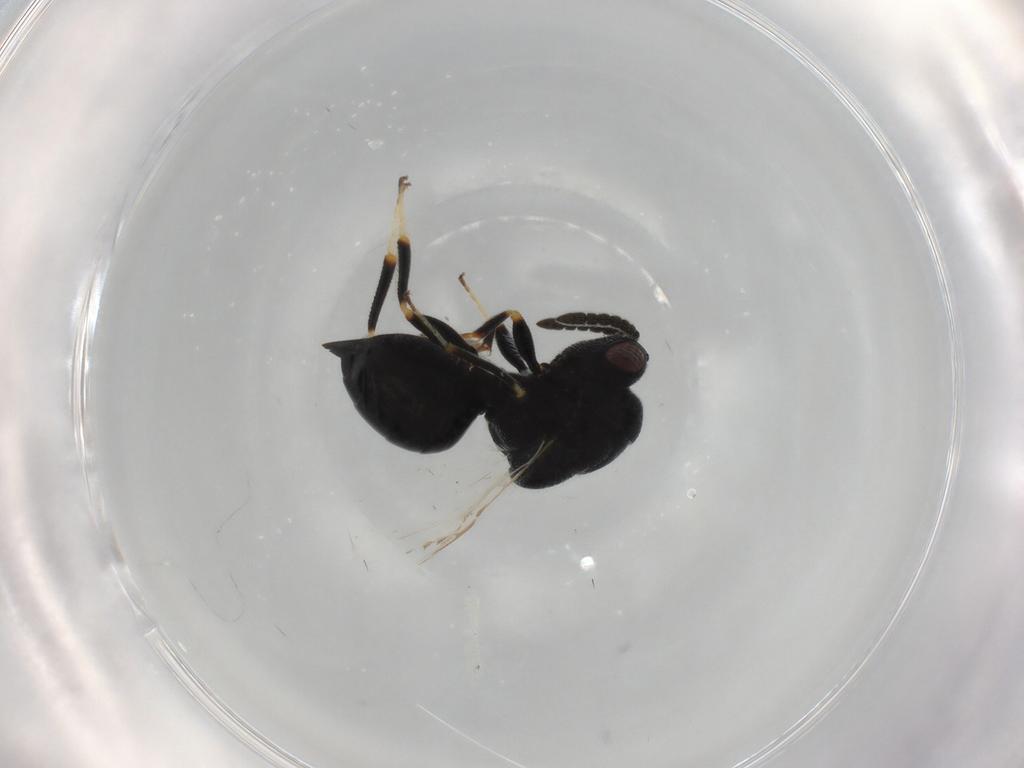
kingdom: Animalia
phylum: Arthropoda
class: Insecta
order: Hymenoptera
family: Eurytomidae
